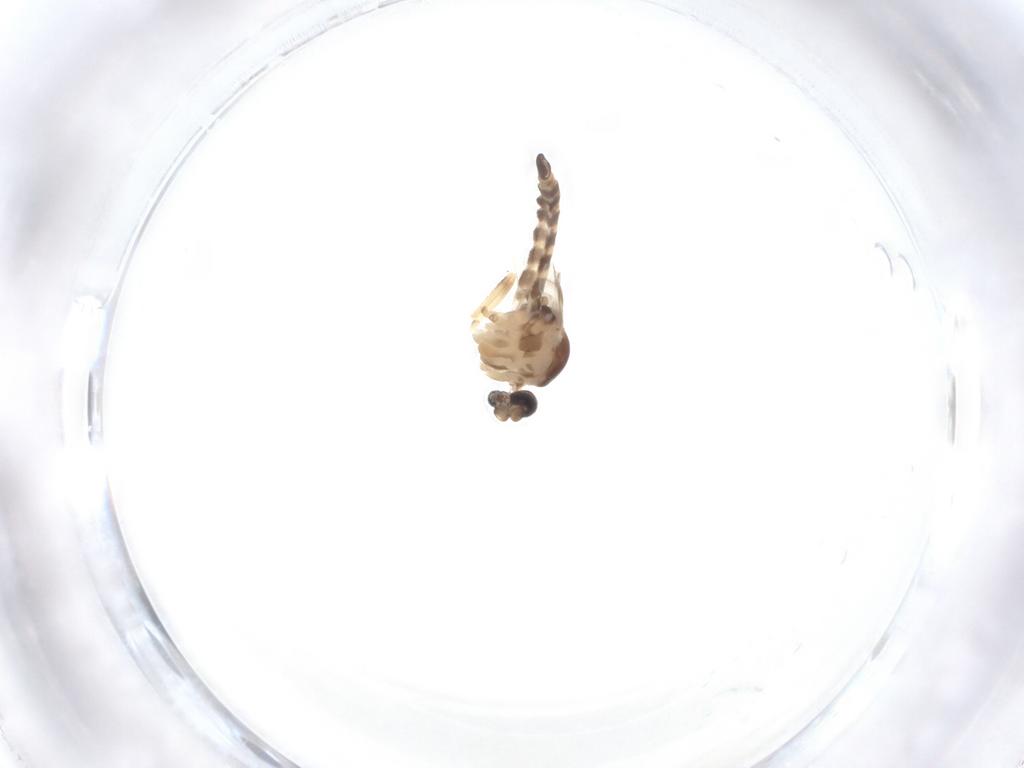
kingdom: Animalia
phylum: Arthropoda
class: Insecta
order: Diptera
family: Ceratopogonidae
